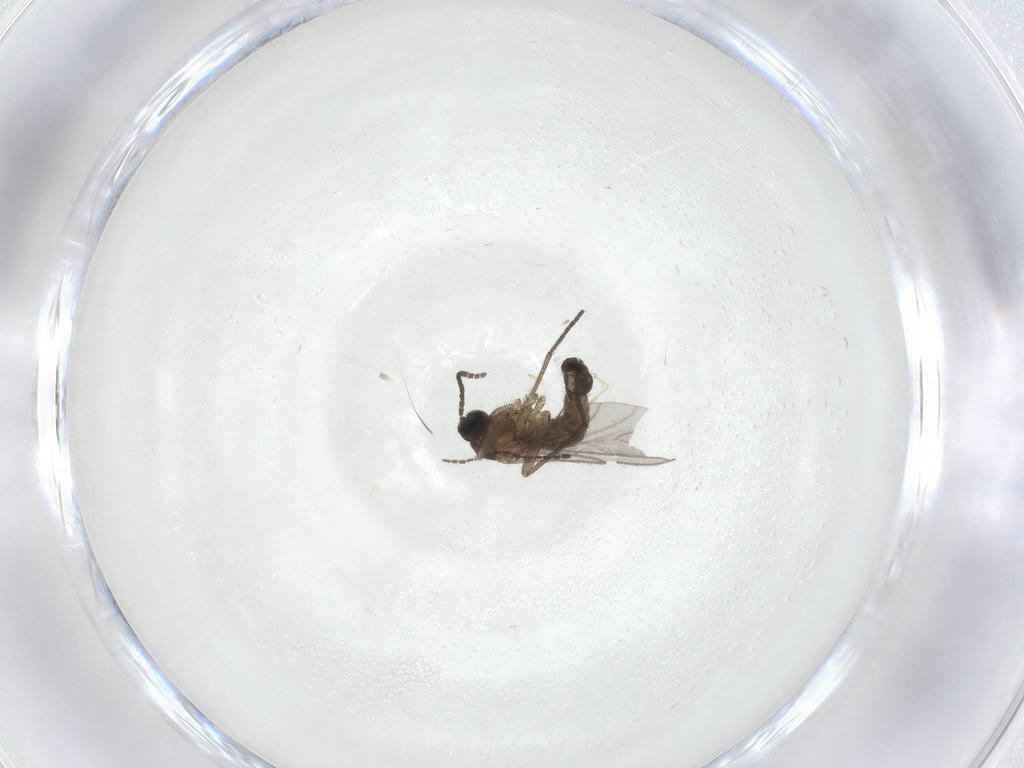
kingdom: Animalia
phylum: Arthropoda
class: Insecta
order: Diptera
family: Sciaridae
